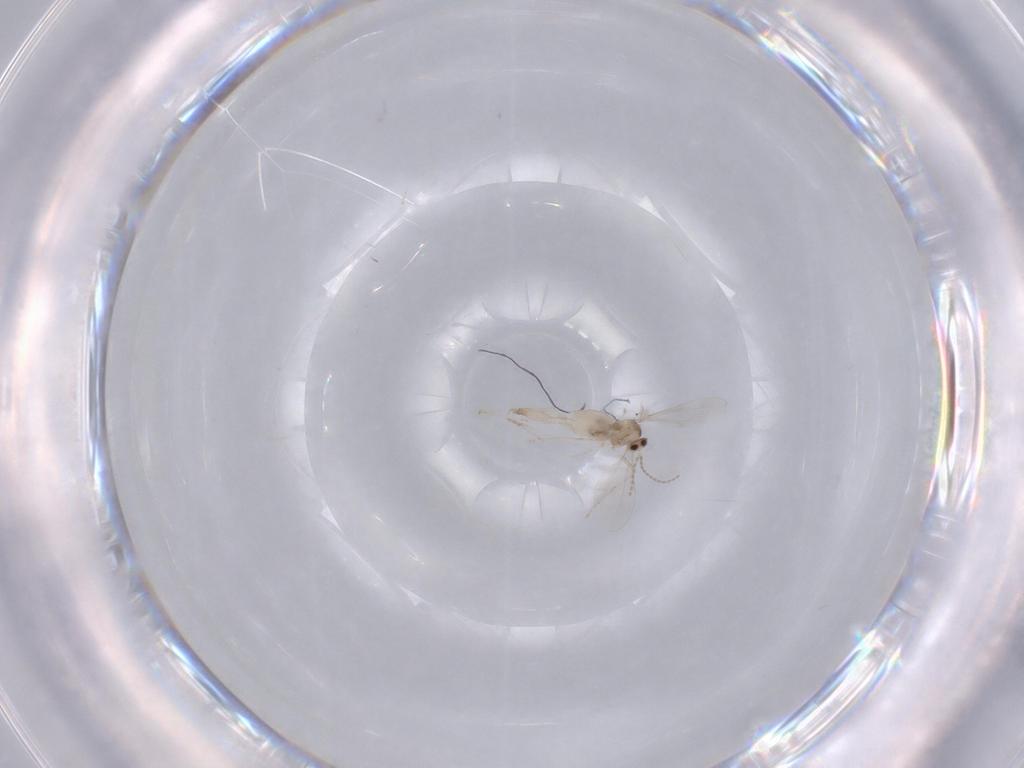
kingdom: Animalia
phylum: Arthropoda
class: Insecta
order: Diptera
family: Cecidomyiidae
